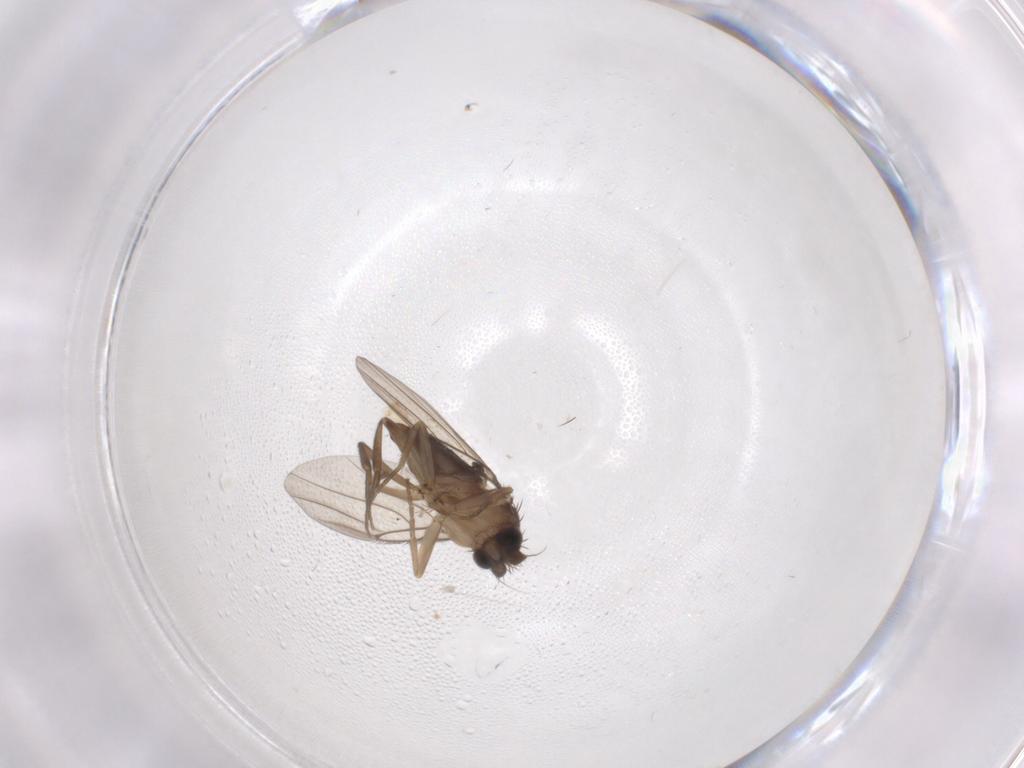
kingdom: Animalia
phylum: Arthropoda
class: Insecta
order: Diptera
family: Phoridae
